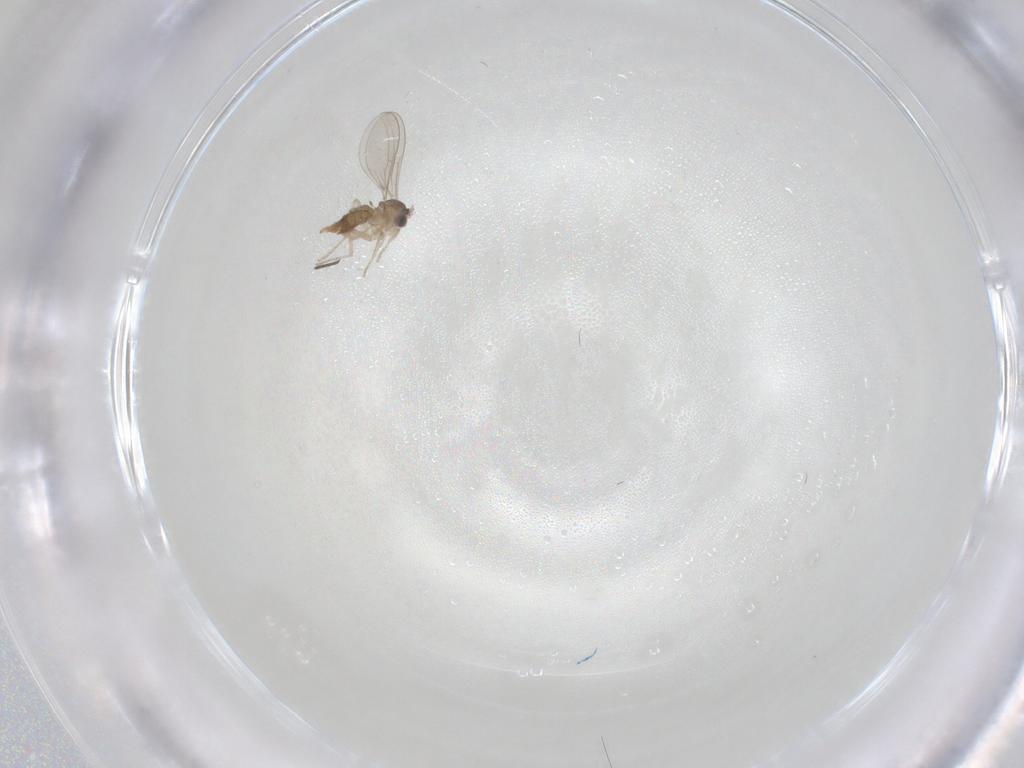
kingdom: Animalia
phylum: Arthropoda
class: Insecta
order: Diptera
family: Cecidomyiidae
